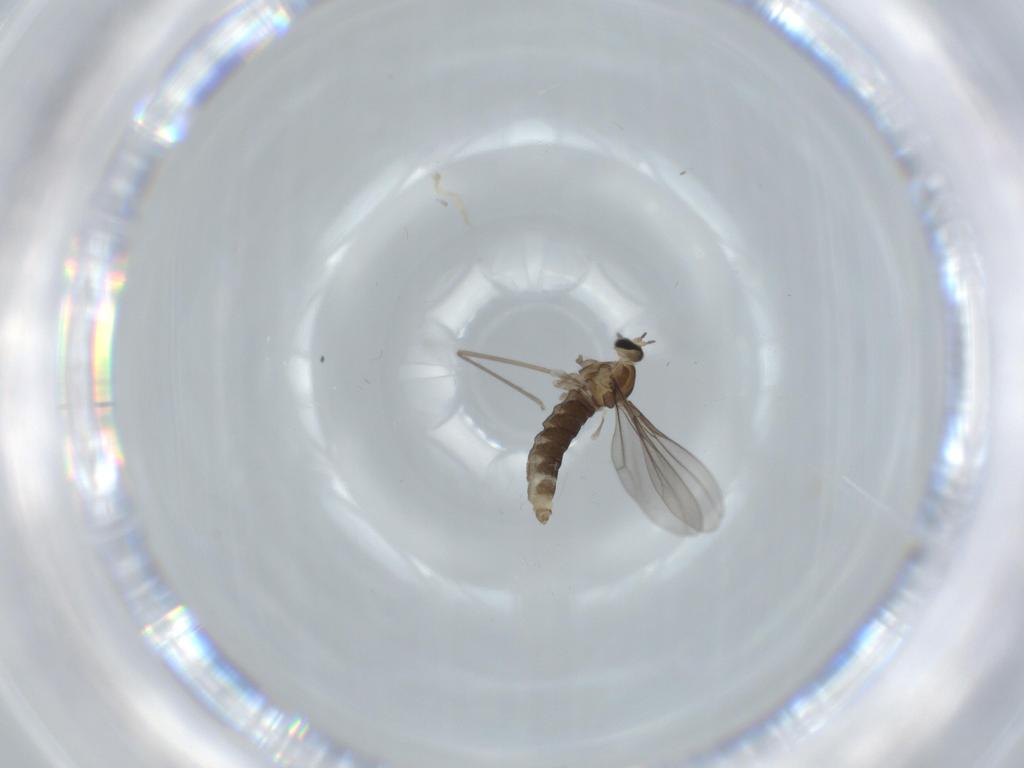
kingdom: Animalia
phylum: Arthropoda
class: Insecta
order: Diptera
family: Cecidomyiidae
